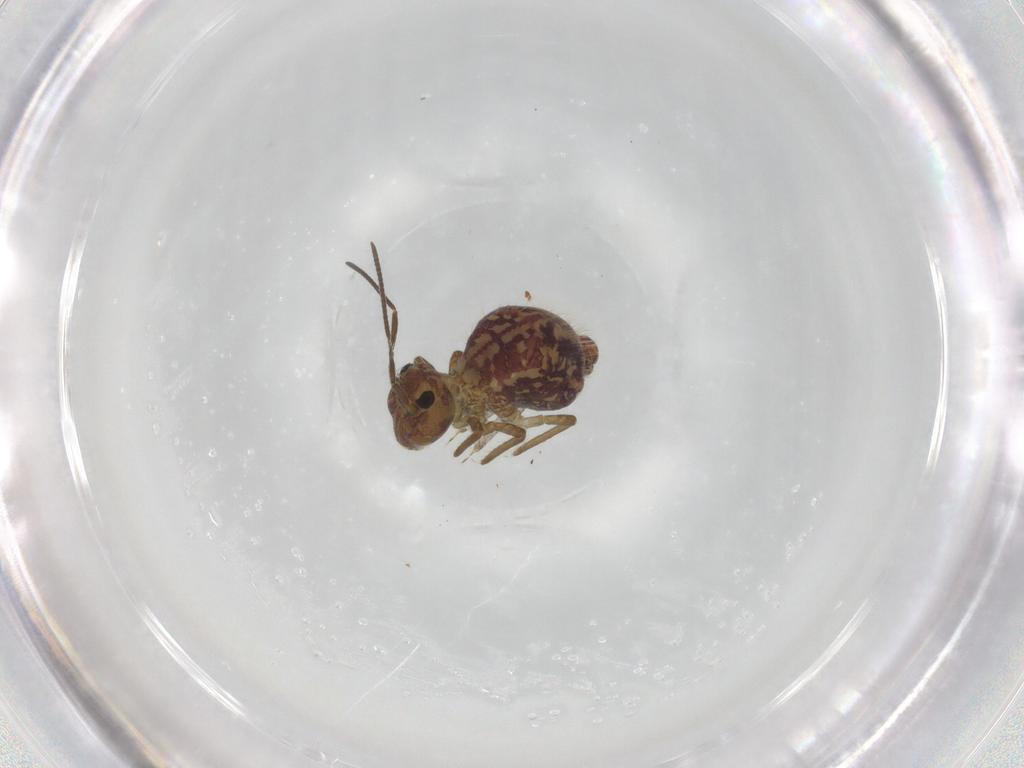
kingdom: Animalia
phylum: Arthropoda
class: Collembola
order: Symphypleona
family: Sminthuridae
